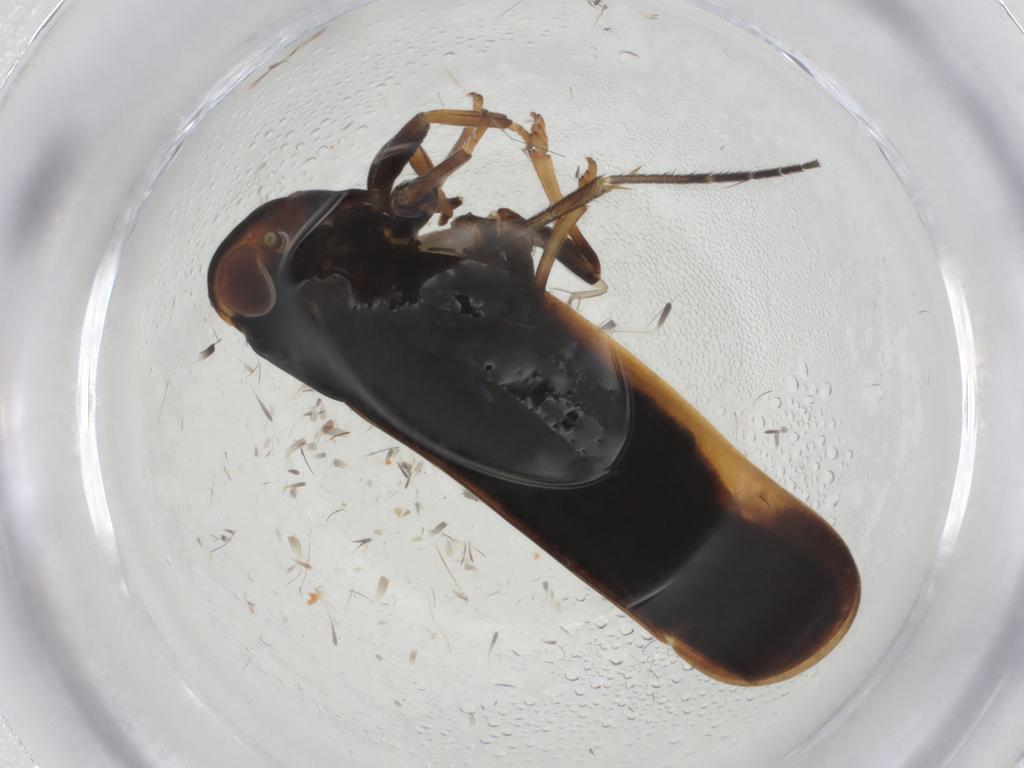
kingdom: Animalia
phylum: Arthropoda
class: Insecta
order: Hemiptera
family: Nogodinidae
